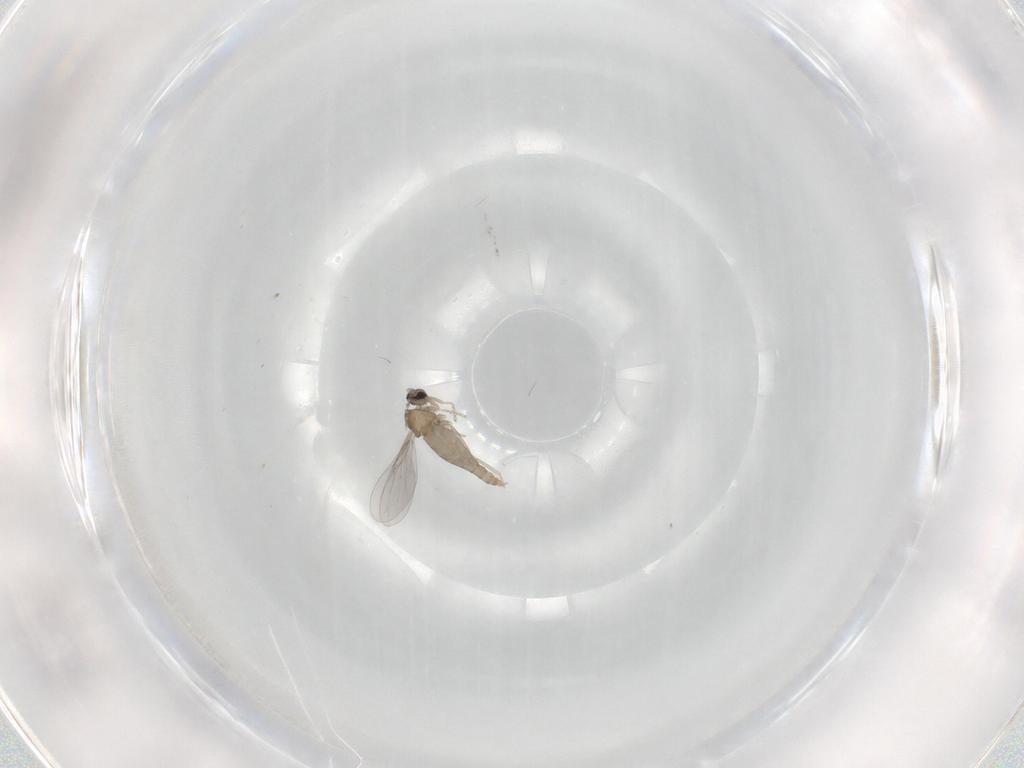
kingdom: Animalia
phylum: Arthropoda
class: Insecta
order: Diptera
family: Cecidomyiidae
